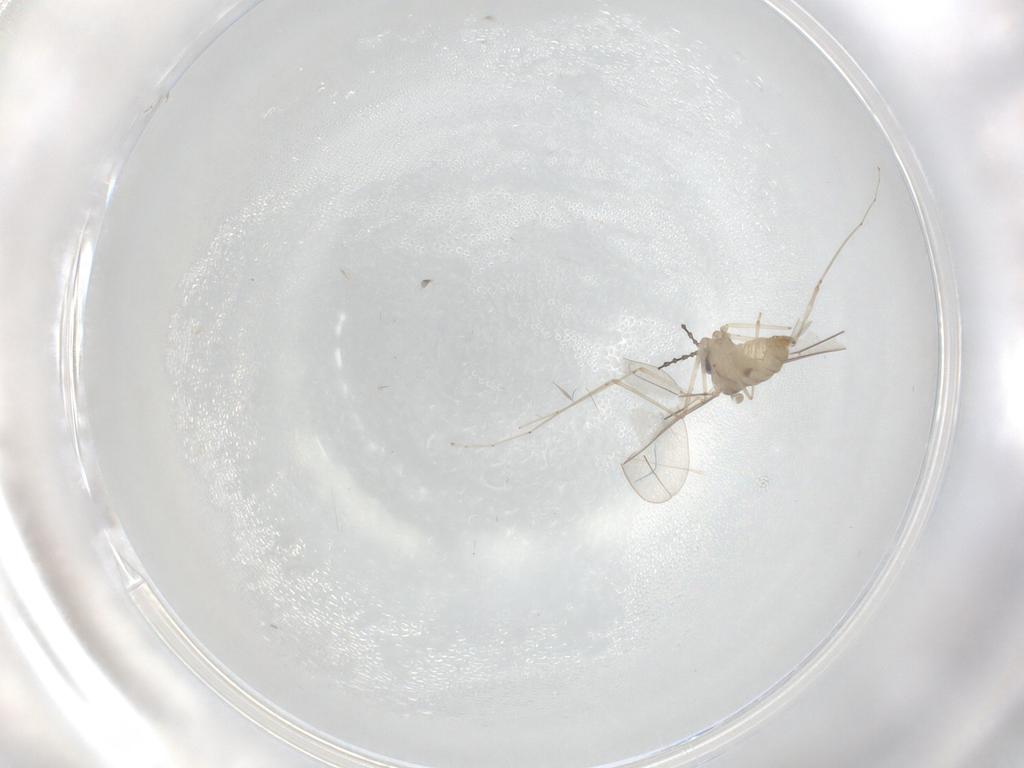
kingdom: Animalia
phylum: Arthropoda
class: Insecta
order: Diptera
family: Cecidomyiidae
